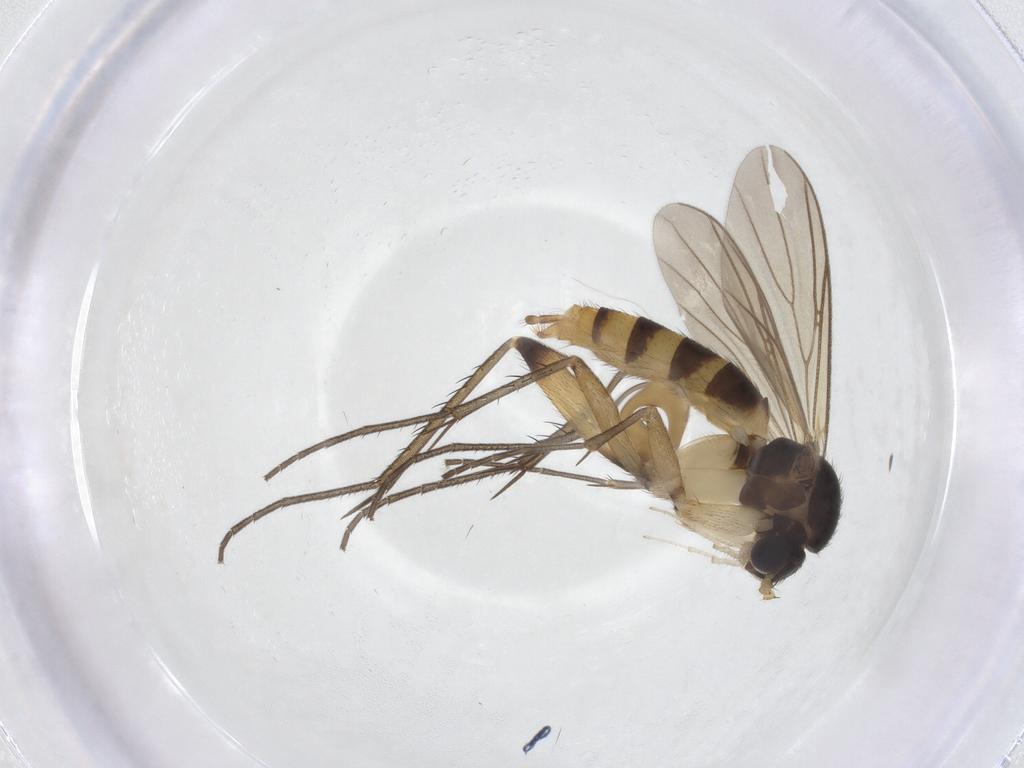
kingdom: Animalia
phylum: Arthropoda
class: Insecta
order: Diptera
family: Mycetophilidae
